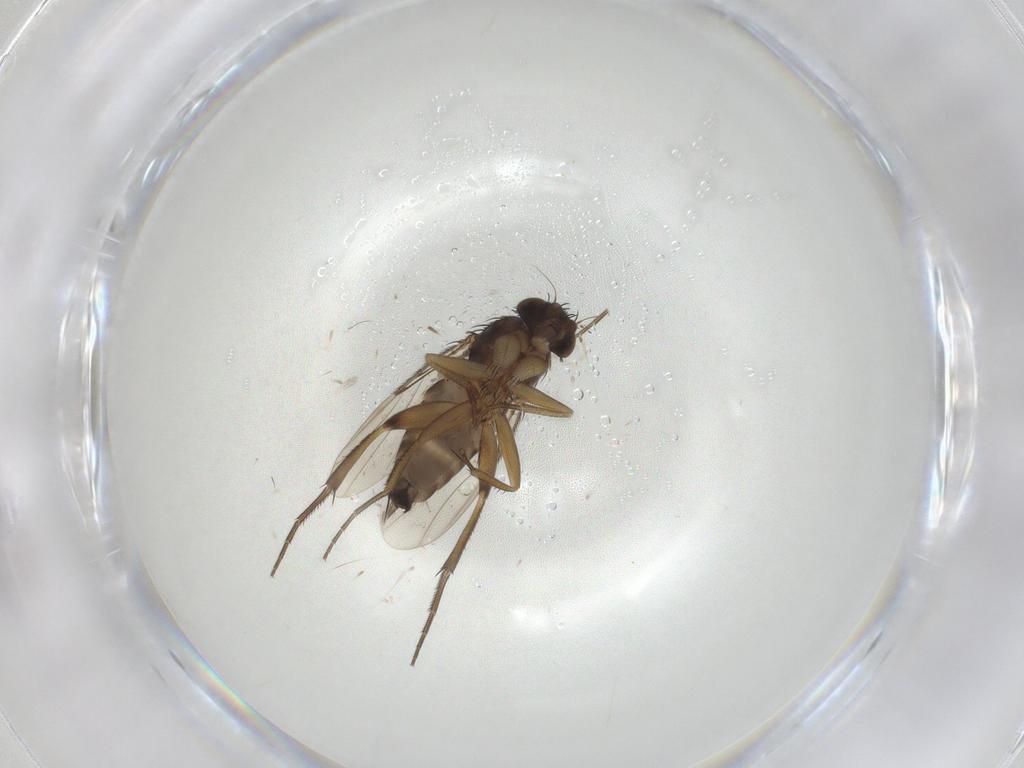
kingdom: Animalia
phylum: Arthropoda
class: Insecta
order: Diptera
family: Phoridae
